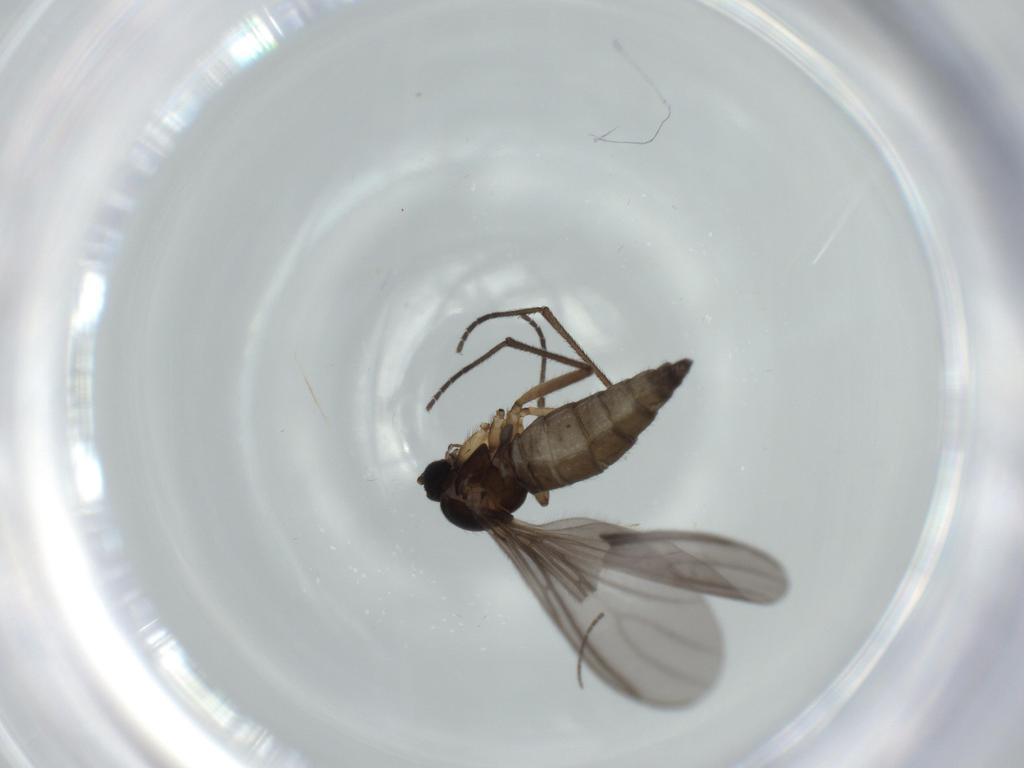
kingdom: Animalia
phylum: Arthropoda
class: Insecta
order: Diptera
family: Sciaridae
